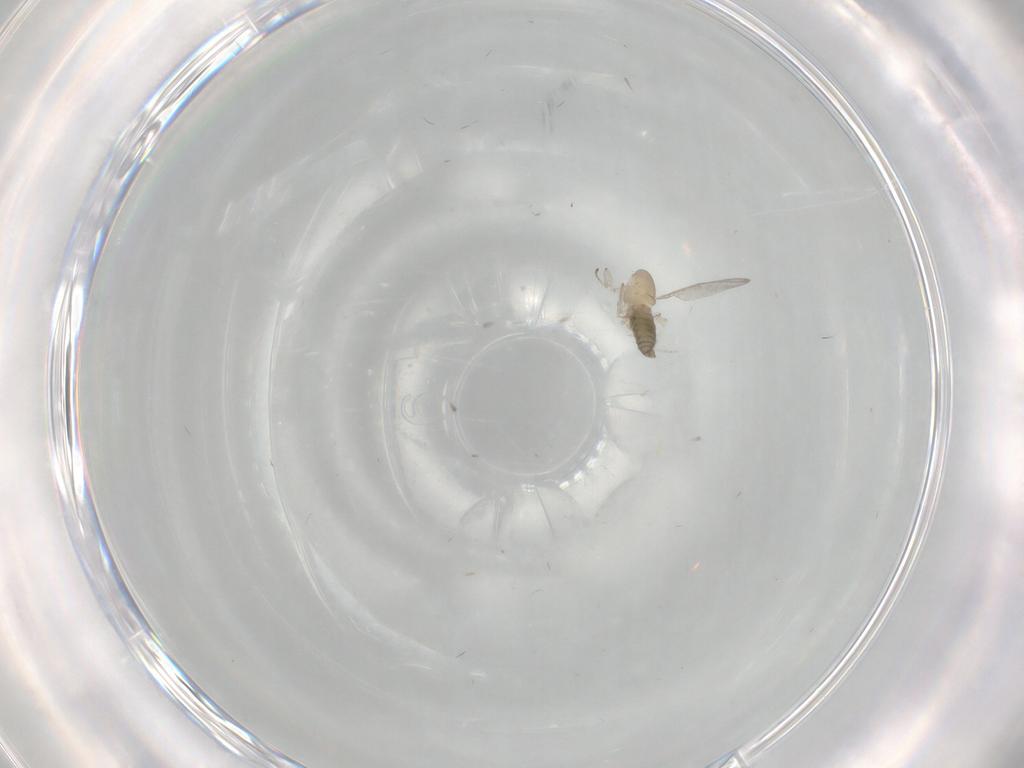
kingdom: Animalia
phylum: Arthropoda
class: Insecta
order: Diptera
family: Cecidomyiidae
